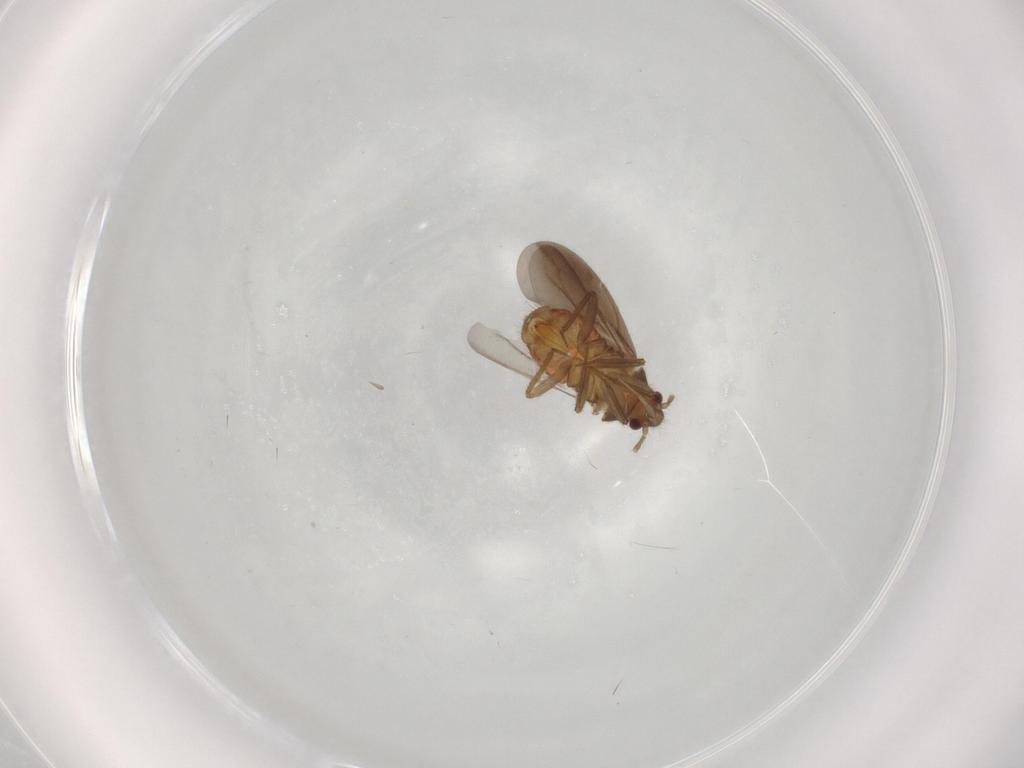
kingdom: Animalia
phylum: Arthropoda
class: Insecta
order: Hemiptera
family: Ceratocombidae
